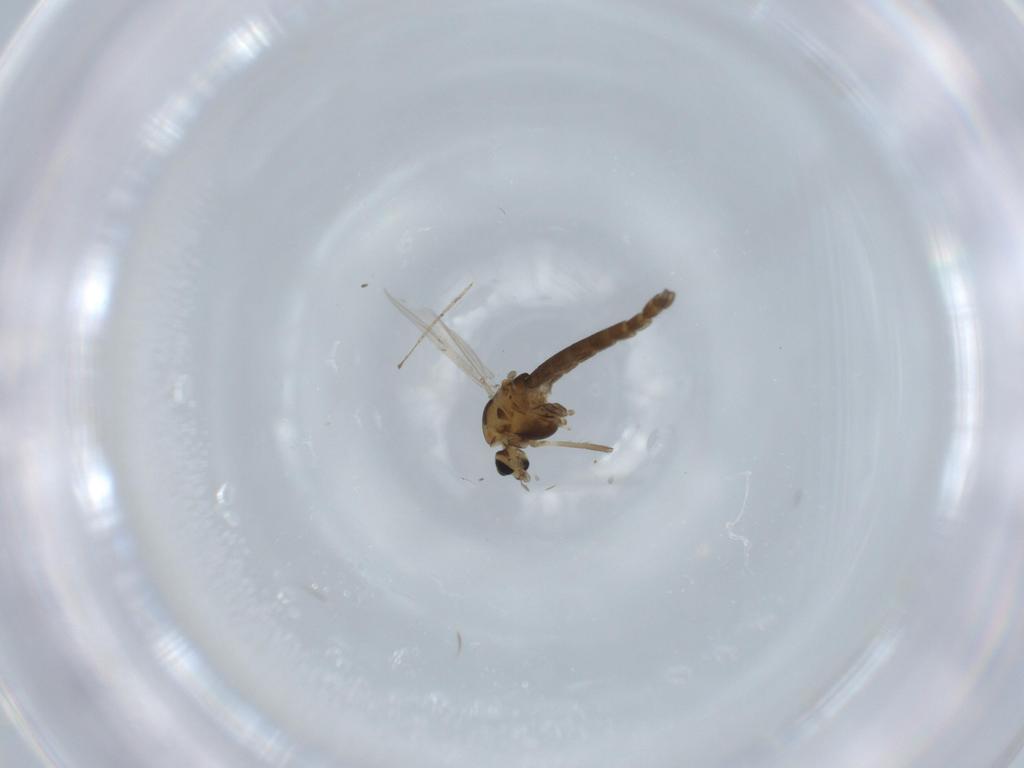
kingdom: Animalia
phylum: Arthropoda
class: Insecta
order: Diptera
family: Chironomidae
